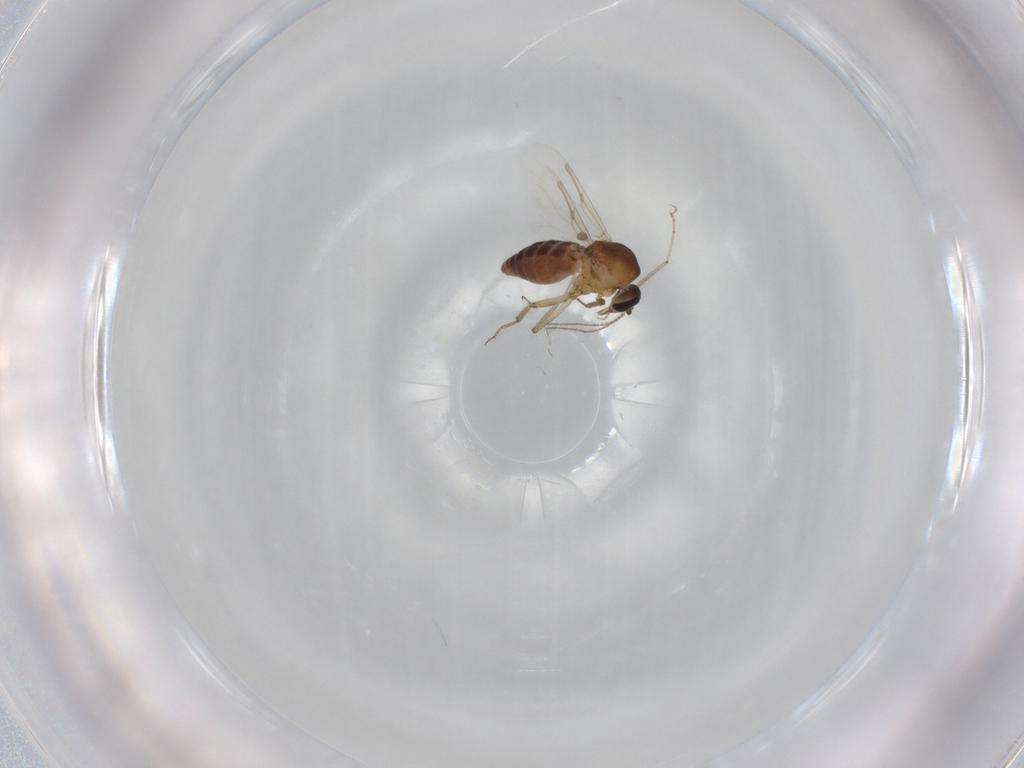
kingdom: Animalia
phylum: Arthropoda
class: Insecta
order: Diptera
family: Ceratopogonidae
